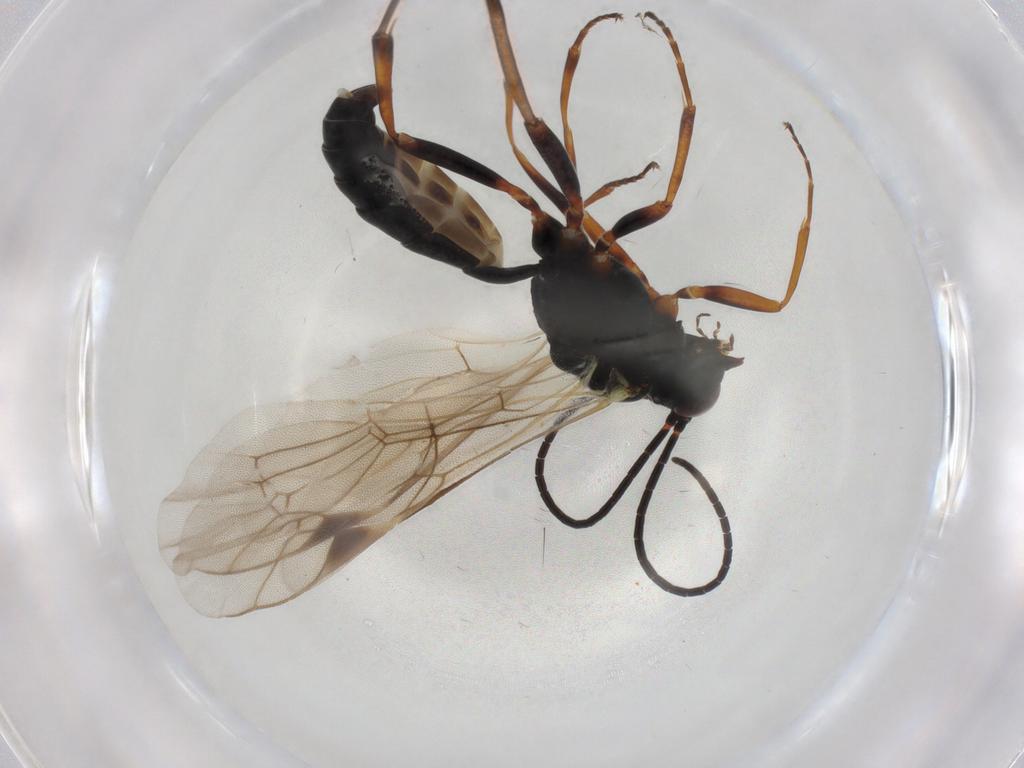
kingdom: Animalia
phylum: Arthropoda
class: Insecta
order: Hymenoptera
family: Ichneumonidae
